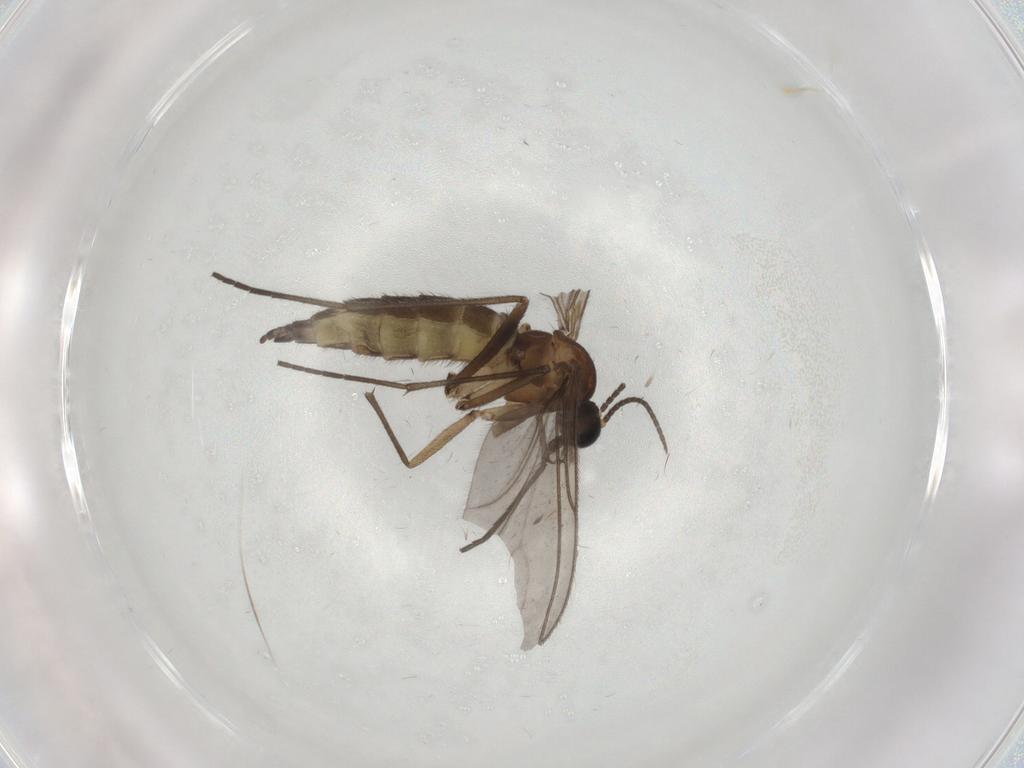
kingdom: Animalia
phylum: Arthropoda
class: Insecta
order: Diptera
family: Sciaridae
